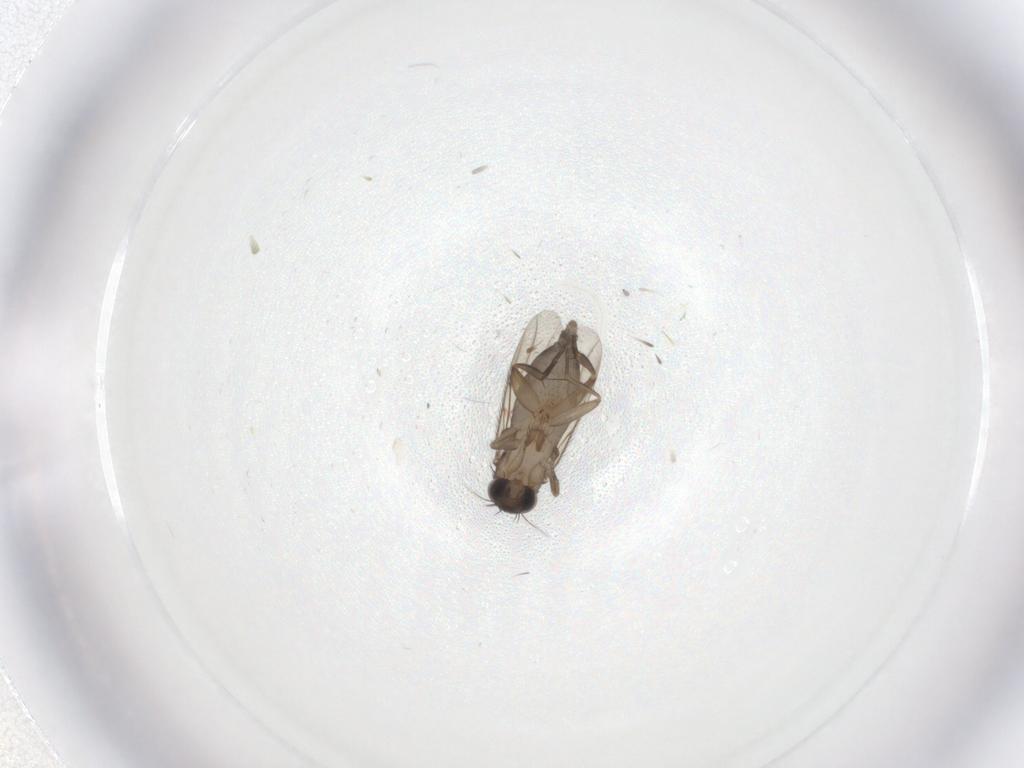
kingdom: Animalia
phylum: Arthropoda
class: Insecta
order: Diptera
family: Phoridae
